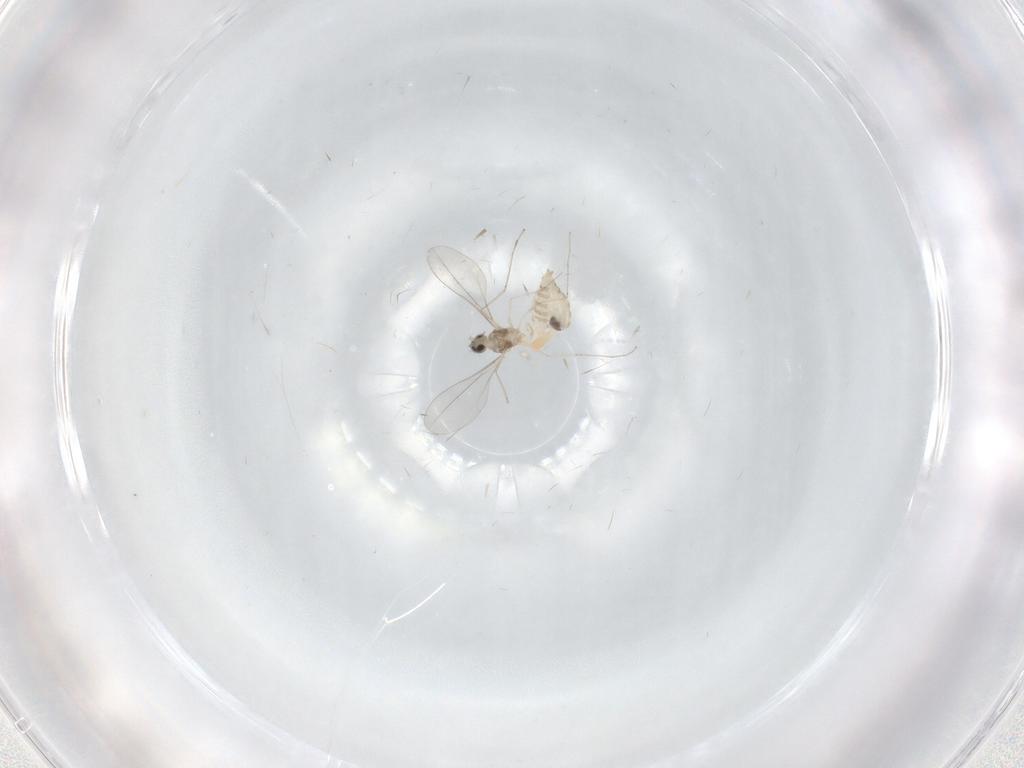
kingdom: Animalia
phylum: Arthropoda
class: Insecta
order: Diptera
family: Cecidomyiidae
